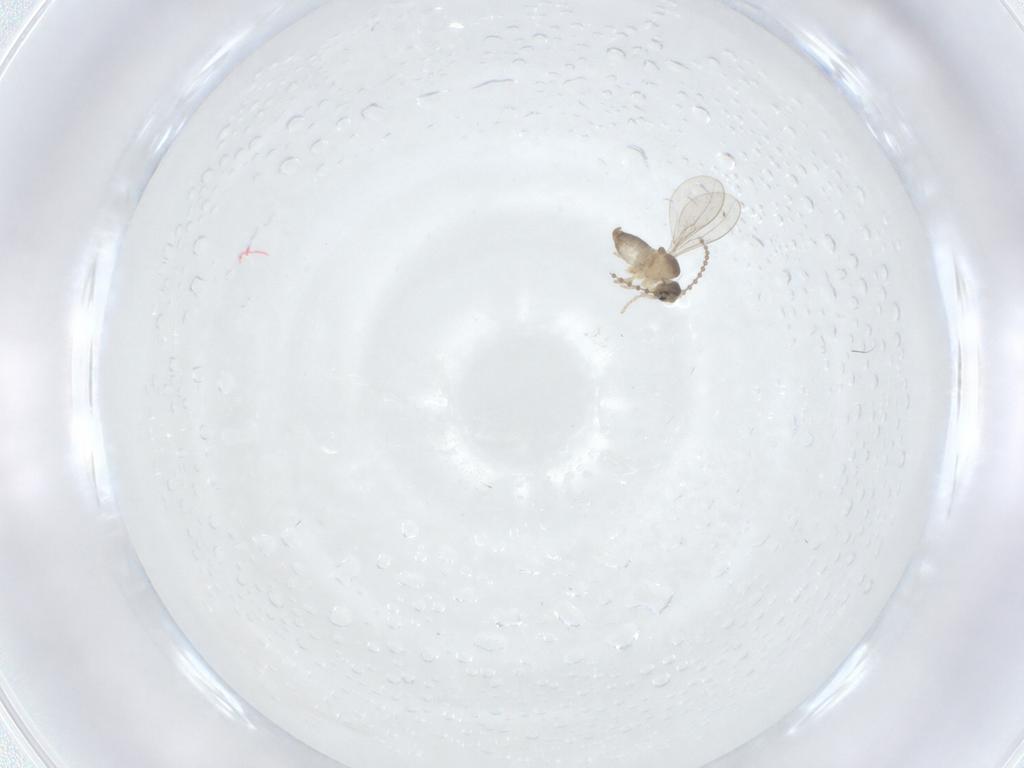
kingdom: Animalia
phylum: Arthropoda
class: Insecta
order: Diptera
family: Cecidomyiidae
